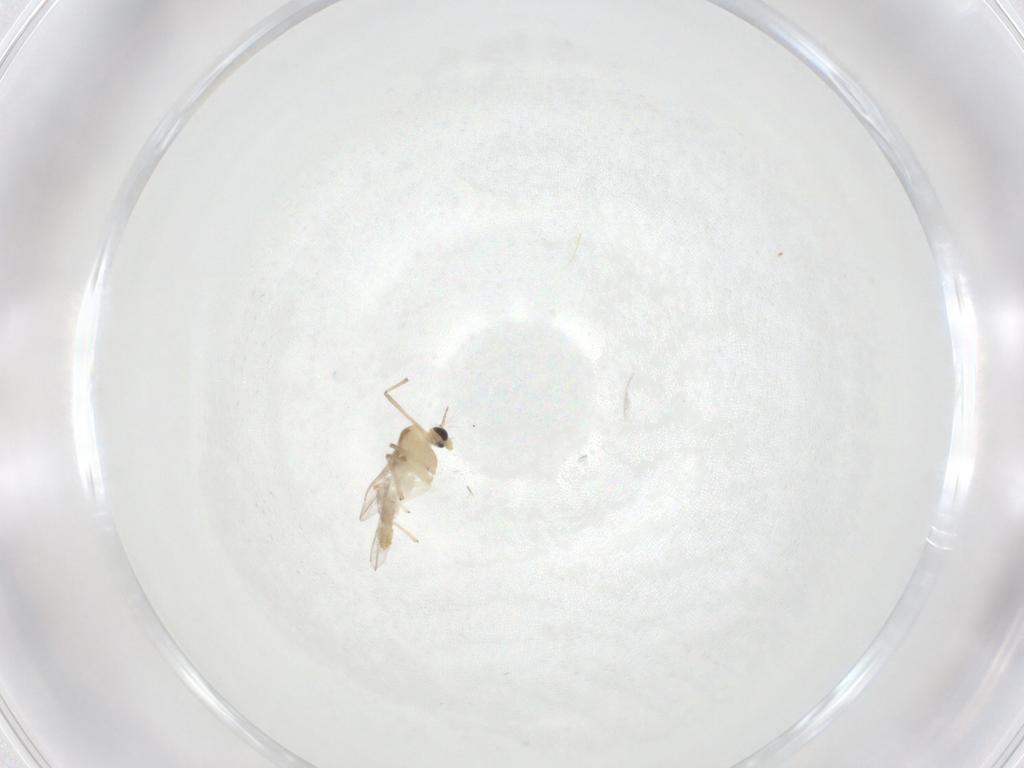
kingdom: Animalia
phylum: Arthropoda
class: Insecta
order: Diptera
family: Chironomidae
